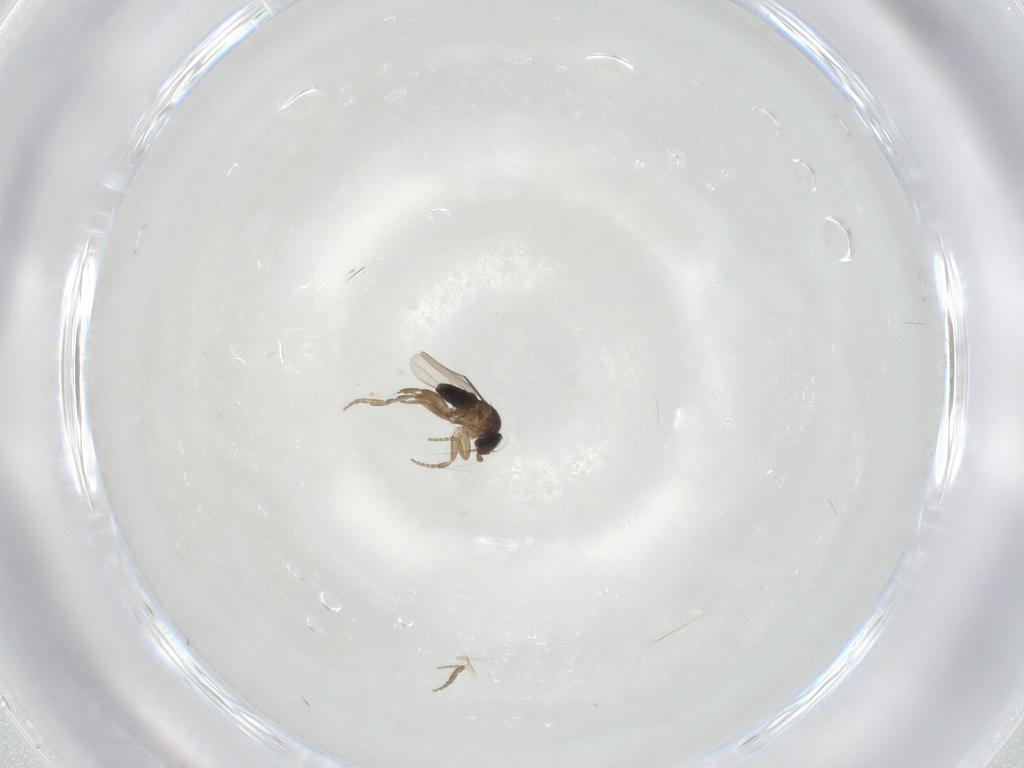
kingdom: Animalia
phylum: Arthropoda
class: Insecta
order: Diptera
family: Phoridae
